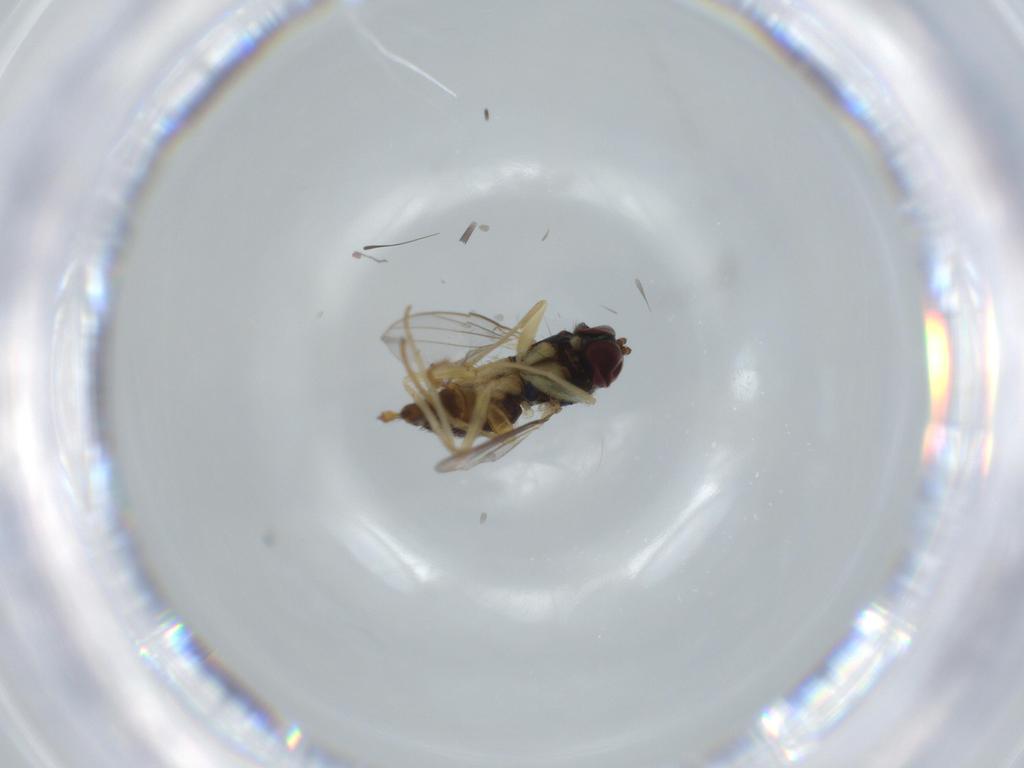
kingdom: Animalia
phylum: Arthropoda
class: Insecta
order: Diptera
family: Dolichopodidae
